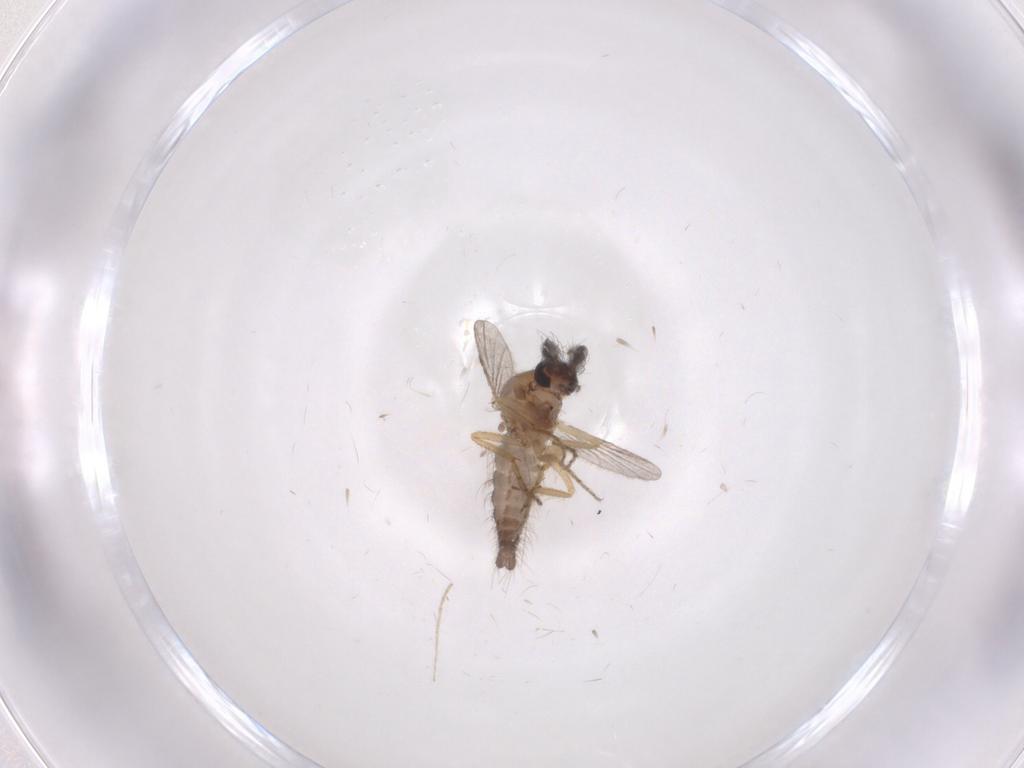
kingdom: Animalia
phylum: Arthropoda
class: Insecta
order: Diptera
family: Ceratopogonidae
